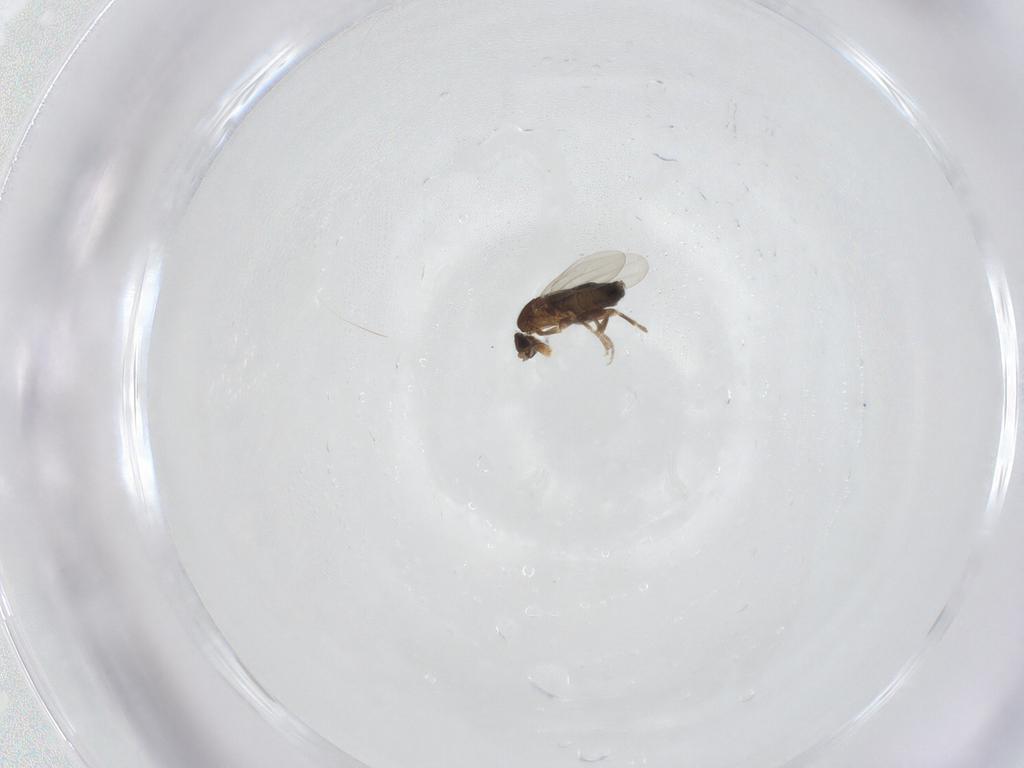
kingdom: Animalia
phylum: Arthropoda
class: Insecta
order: Diptera
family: Phoridae
